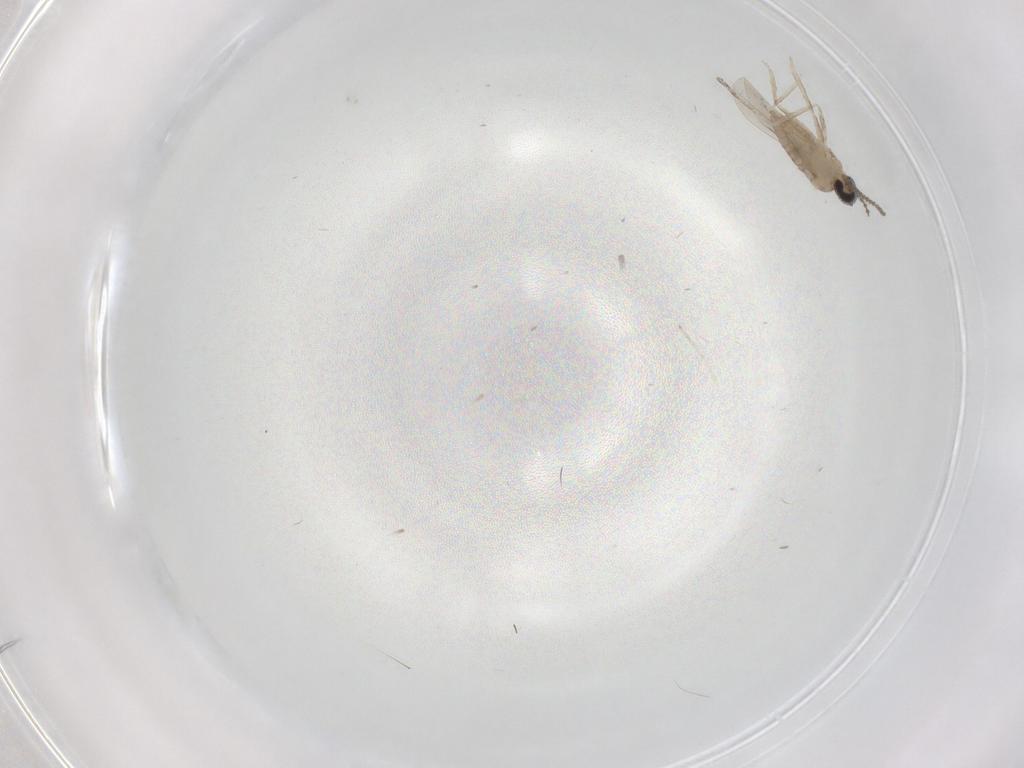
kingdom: Animalia
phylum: Arthropoda
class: Insecta
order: Diptera
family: Cecidomyiidae
